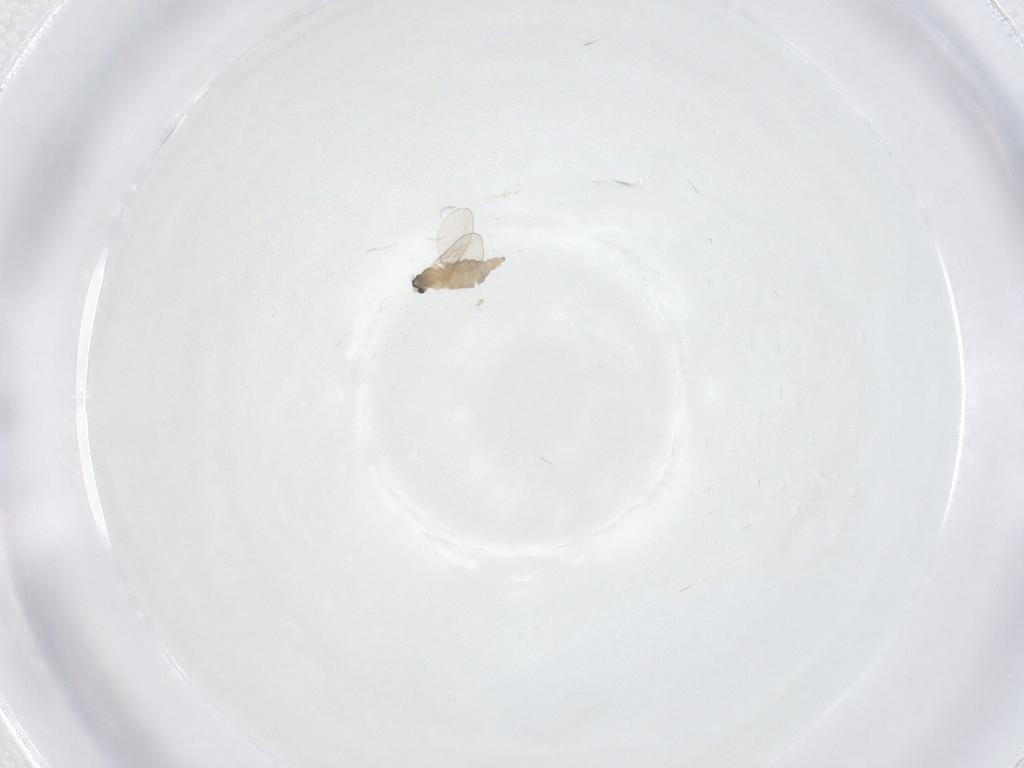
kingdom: Animalia
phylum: Arthropoda
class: Insecta
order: Diptera
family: Cecidomyiidae
